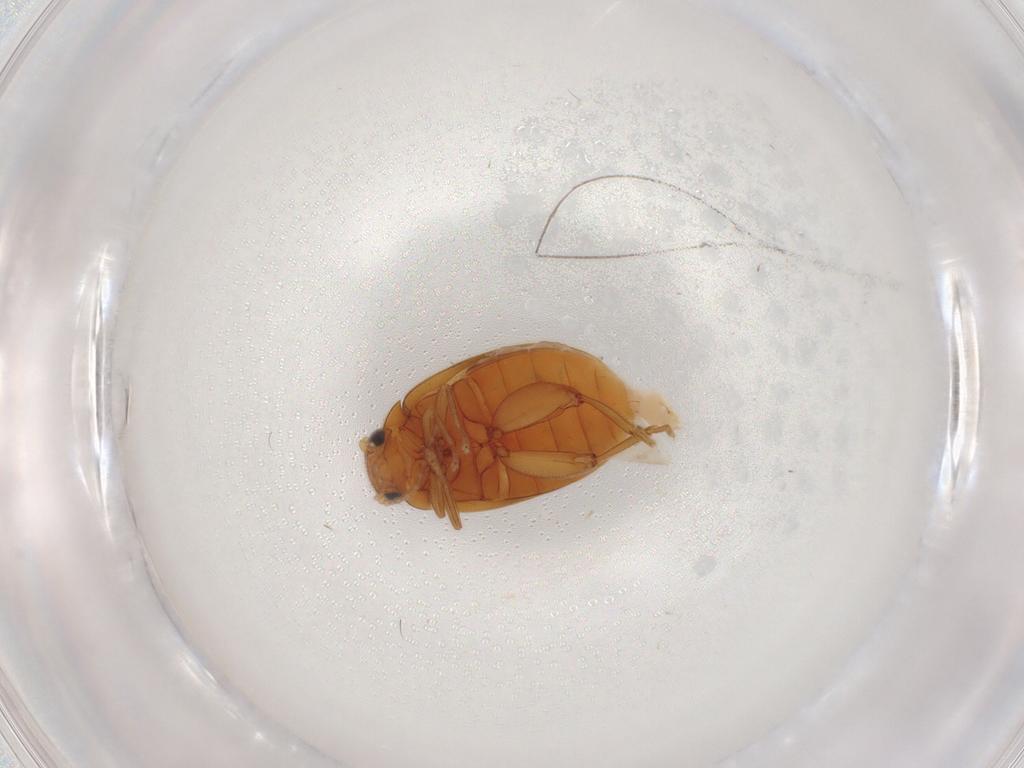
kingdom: Animalia
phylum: Arthropoda
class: Insecta
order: Coleoptera
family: Scirtidae
